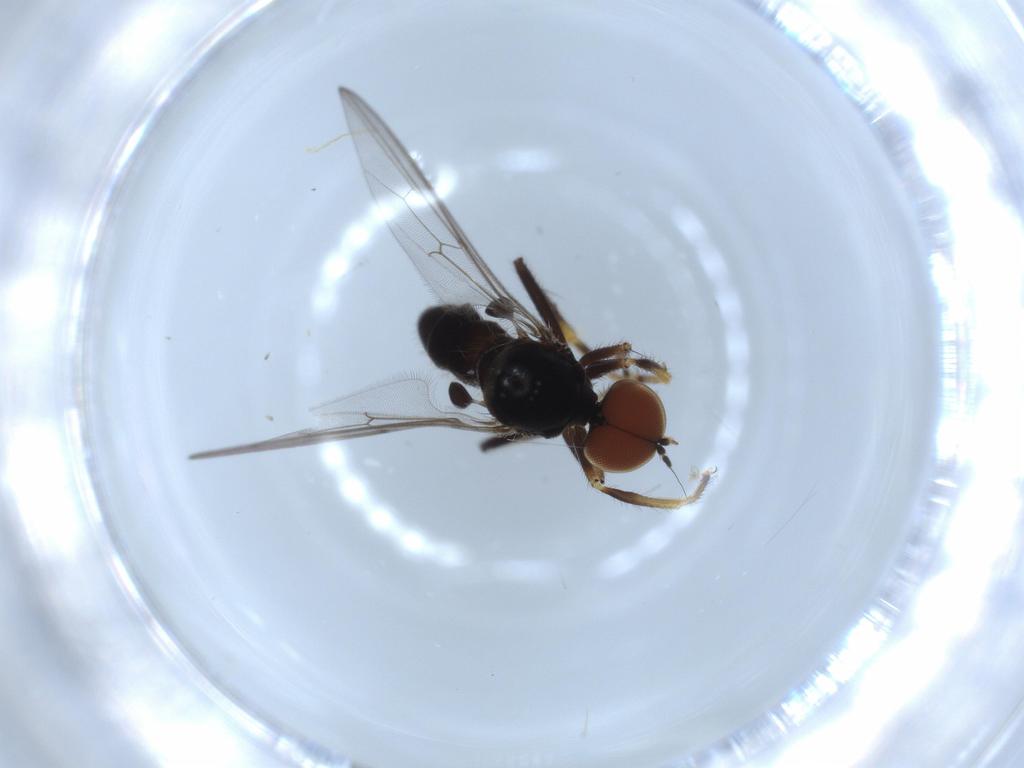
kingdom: Animalia
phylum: Arthropoda
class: Insecta
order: Diptera
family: Hybotidae
